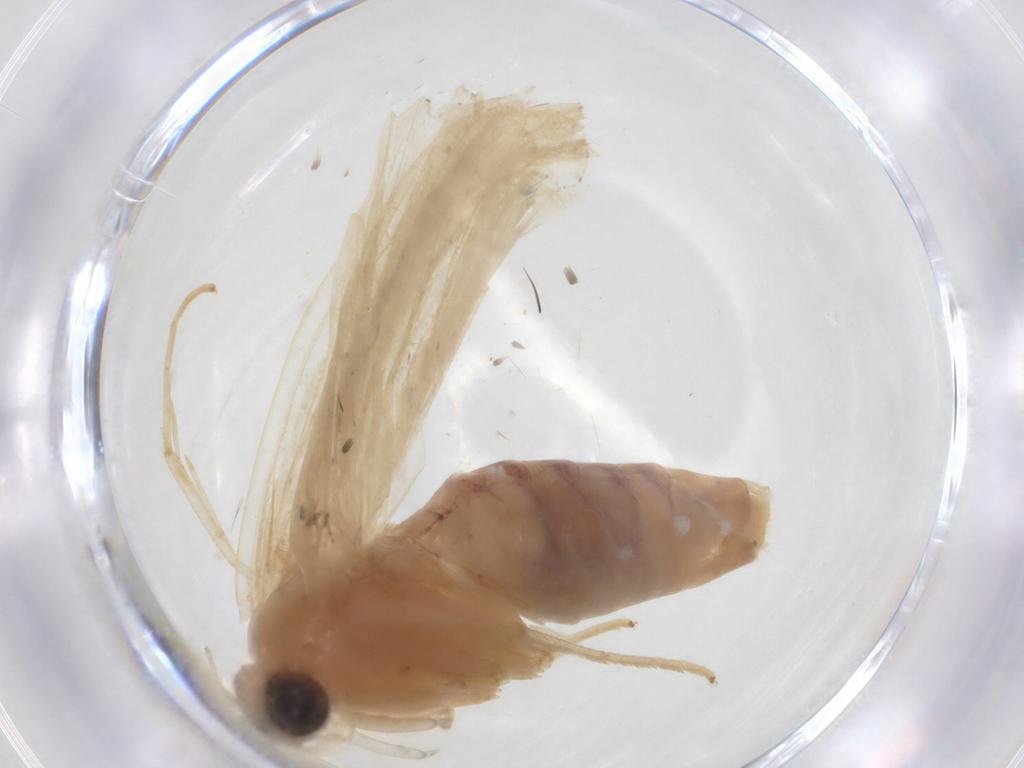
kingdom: Animalia
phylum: Arthropoda
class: Insecta
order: Lepidoptera
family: Crambidae
